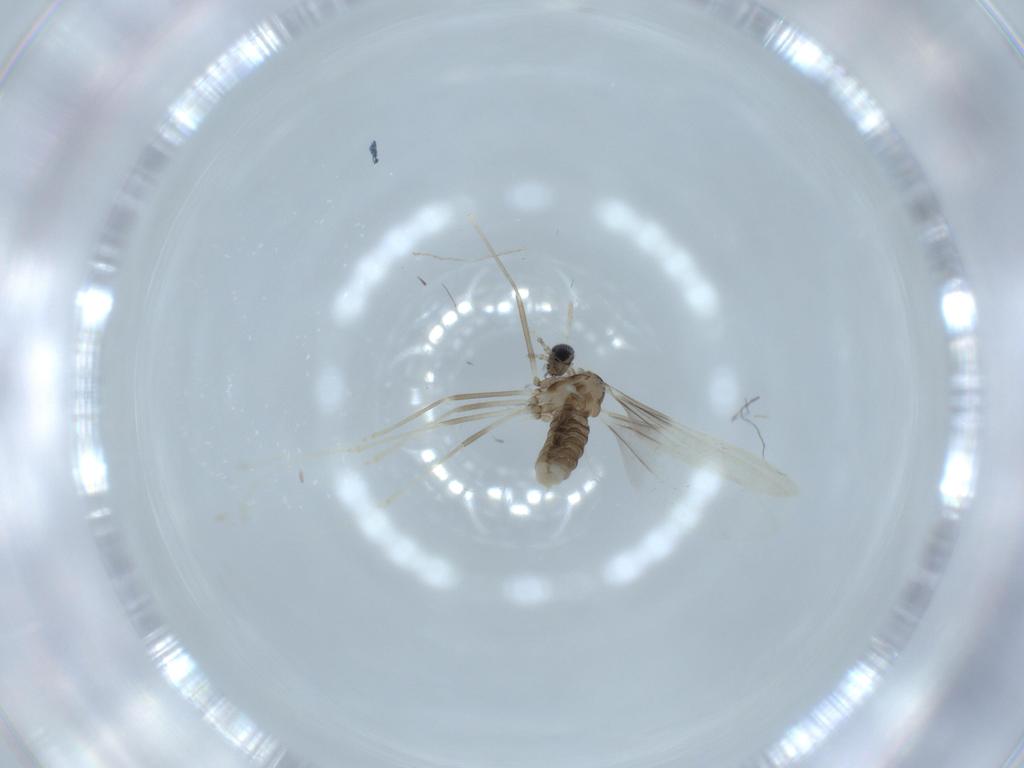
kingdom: Animalia
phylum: Arthropoda
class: Insecta
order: Diptera
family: Cecidomyiidae
